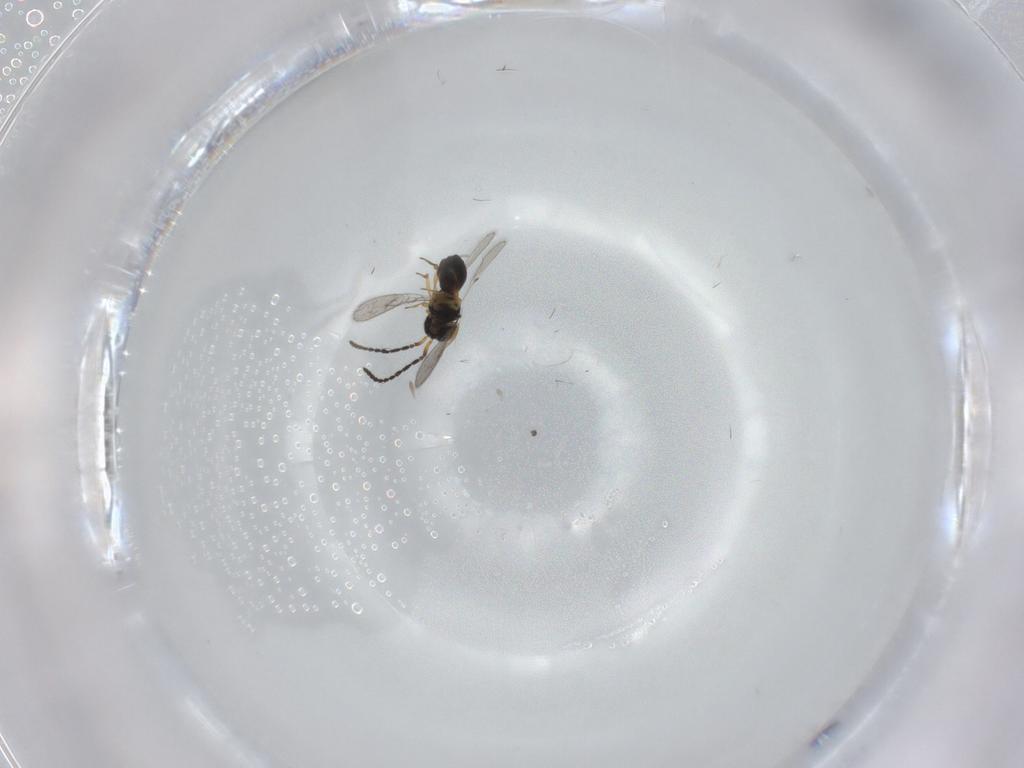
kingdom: Animalia
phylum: Arthropoda
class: Insecta
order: Hymenoptera
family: Scelionidae
